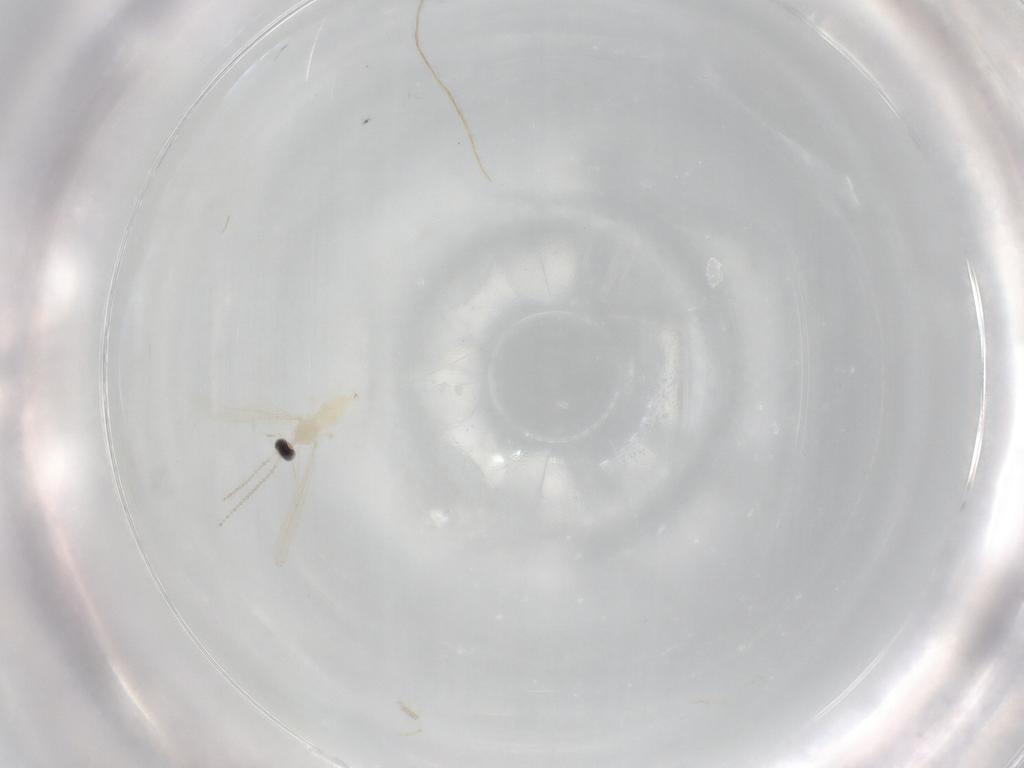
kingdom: Animalia
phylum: Arthropoda
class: Insecta
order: Diptera
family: Cecidomyiidae
